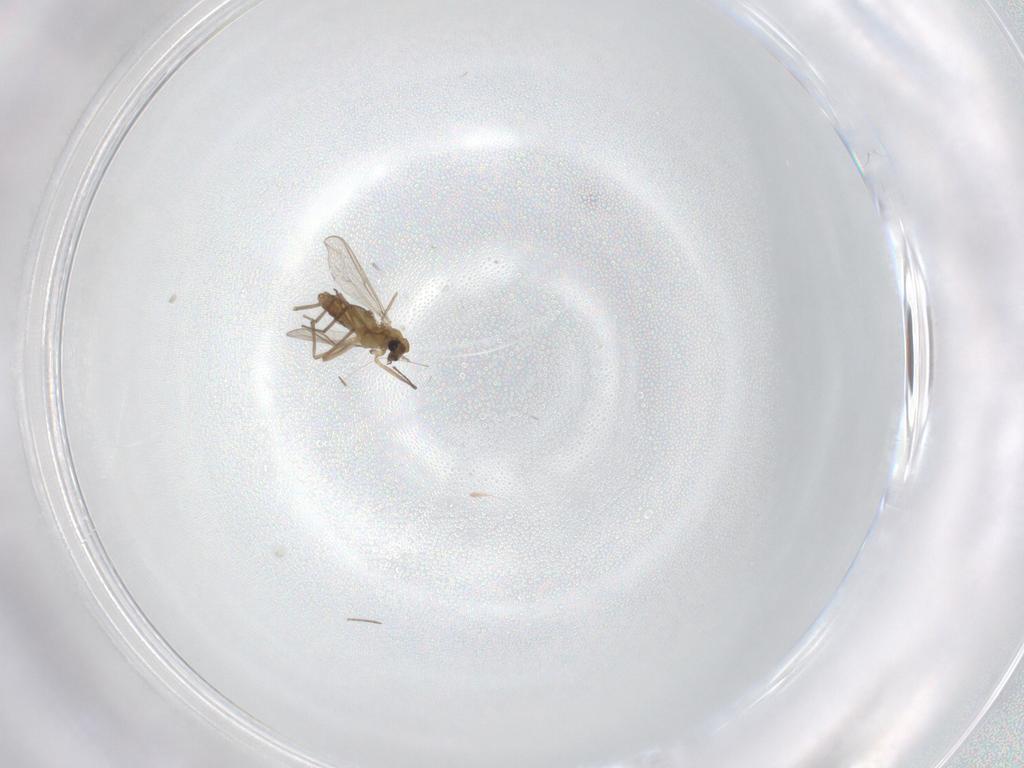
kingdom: Animalia
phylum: Arthropoda
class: Insecta
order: Diptera
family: Chironomidae
